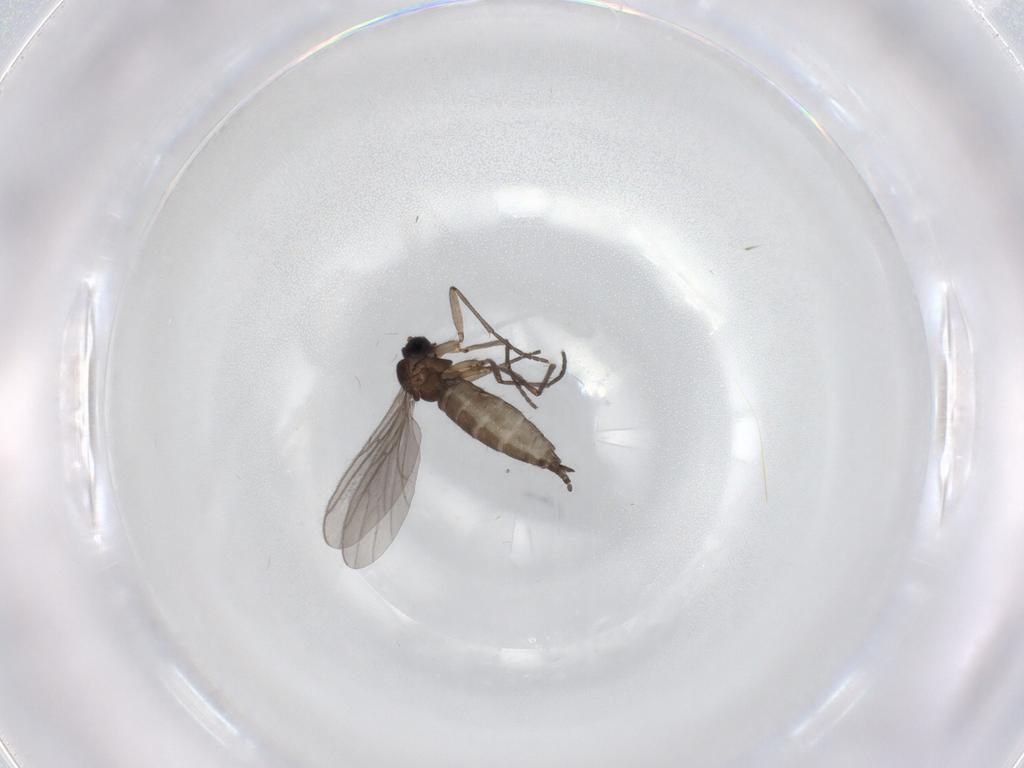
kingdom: Animalia
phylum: Arthropoda
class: Insecta
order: Diptera
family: Sciaridae
